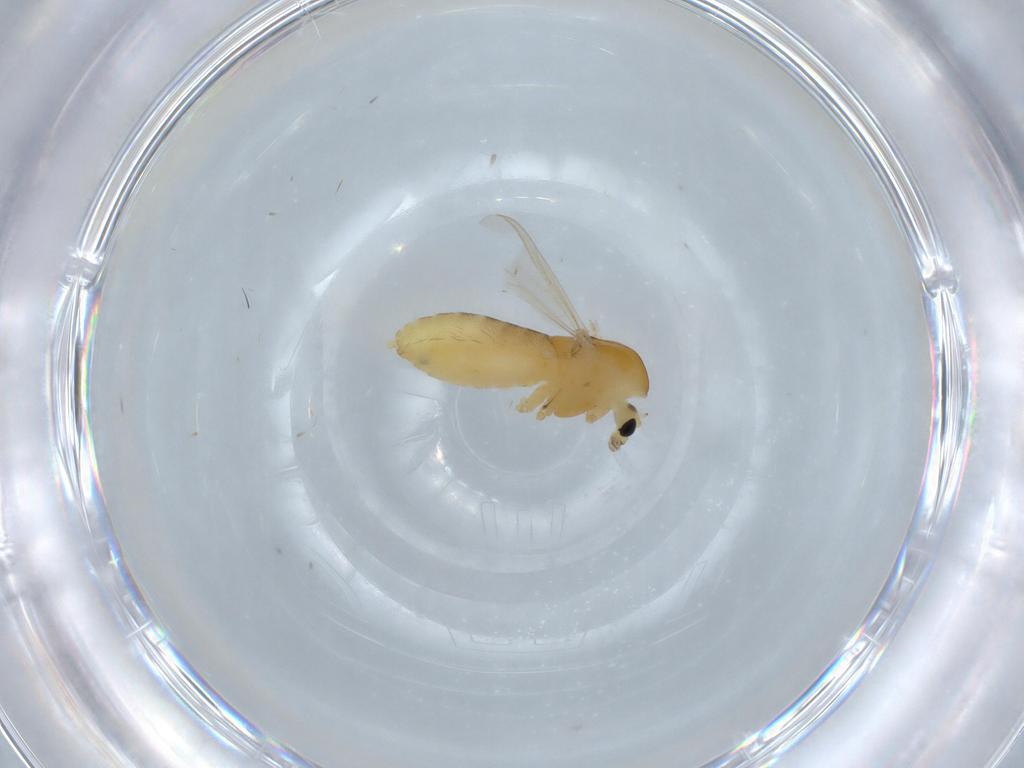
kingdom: Animalia
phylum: Arthropoda
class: Insecta
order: Diptera
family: Chironomidae
